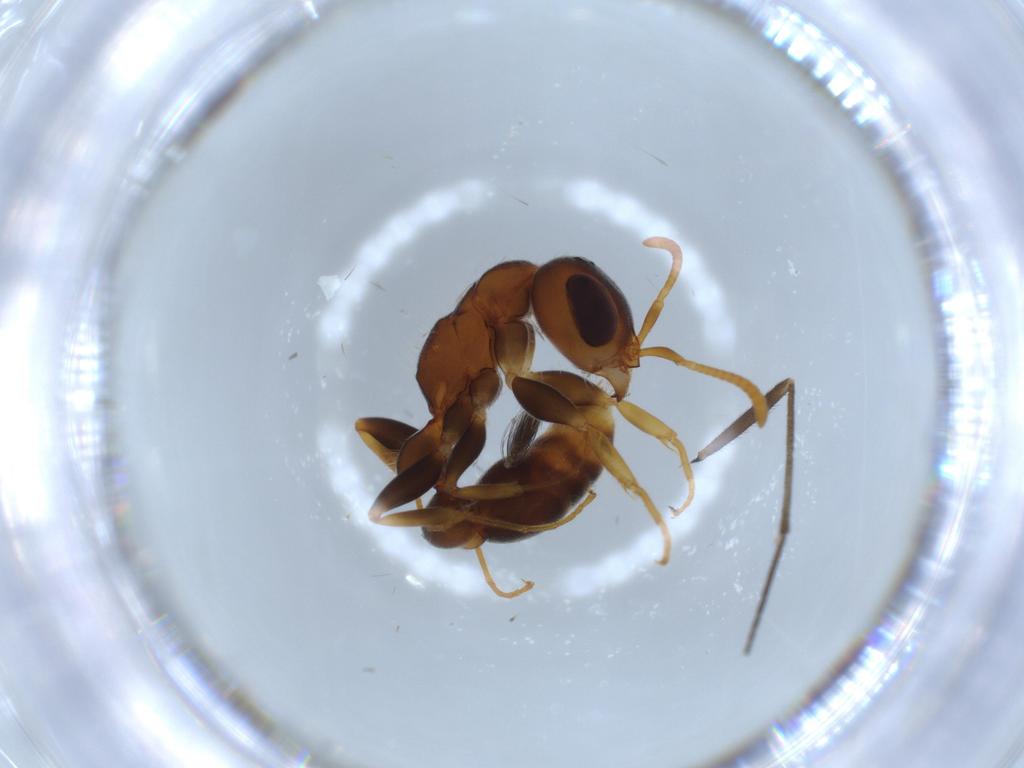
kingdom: Animalia
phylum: Arthropoda
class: Insecta
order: Hymenoptera
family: Formicidae
